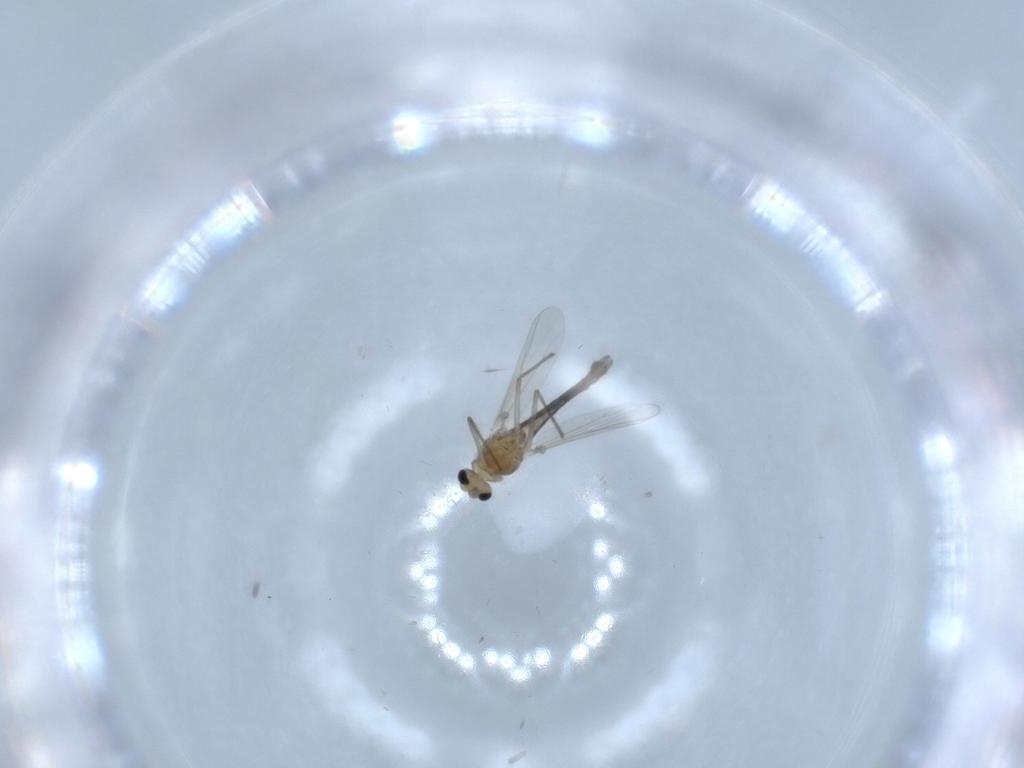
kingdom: Animalia
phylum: Arthropoda
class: Insecta
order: Diptera
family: Chironomidae
